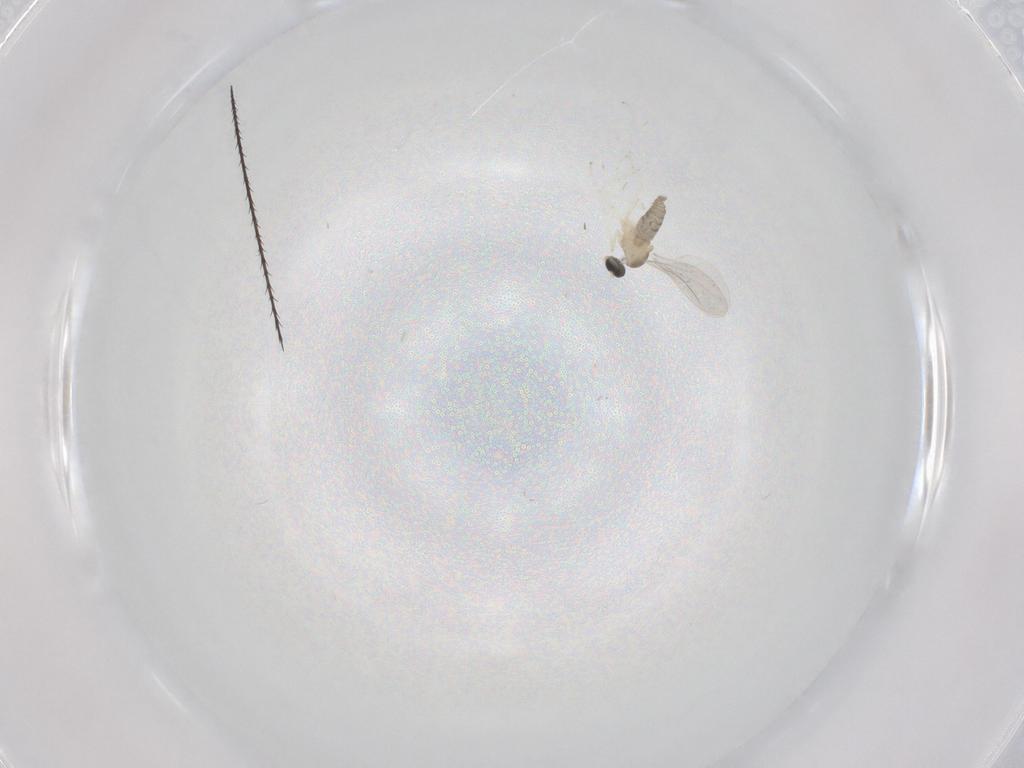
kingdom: Animalia
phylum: Arthropoda
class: Insecta
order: Diptera
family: Cecidomyiidae
